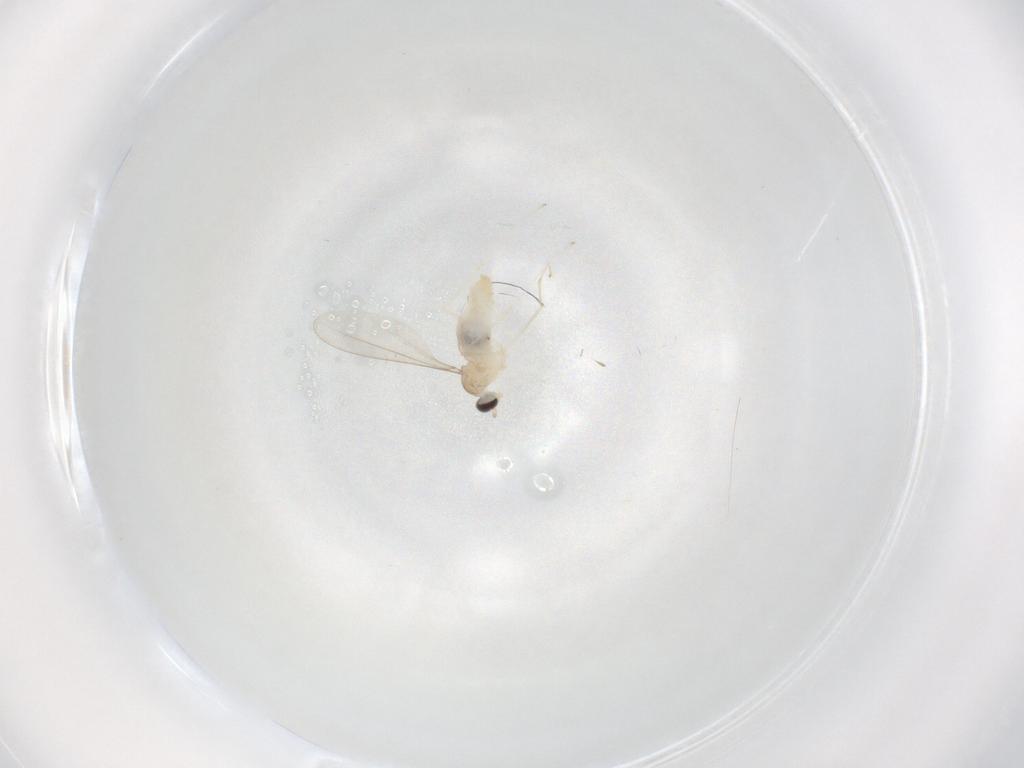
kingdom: Animalia
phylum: Arthropoda
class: Insecta
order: Diptera
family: Cecidomyiidae
